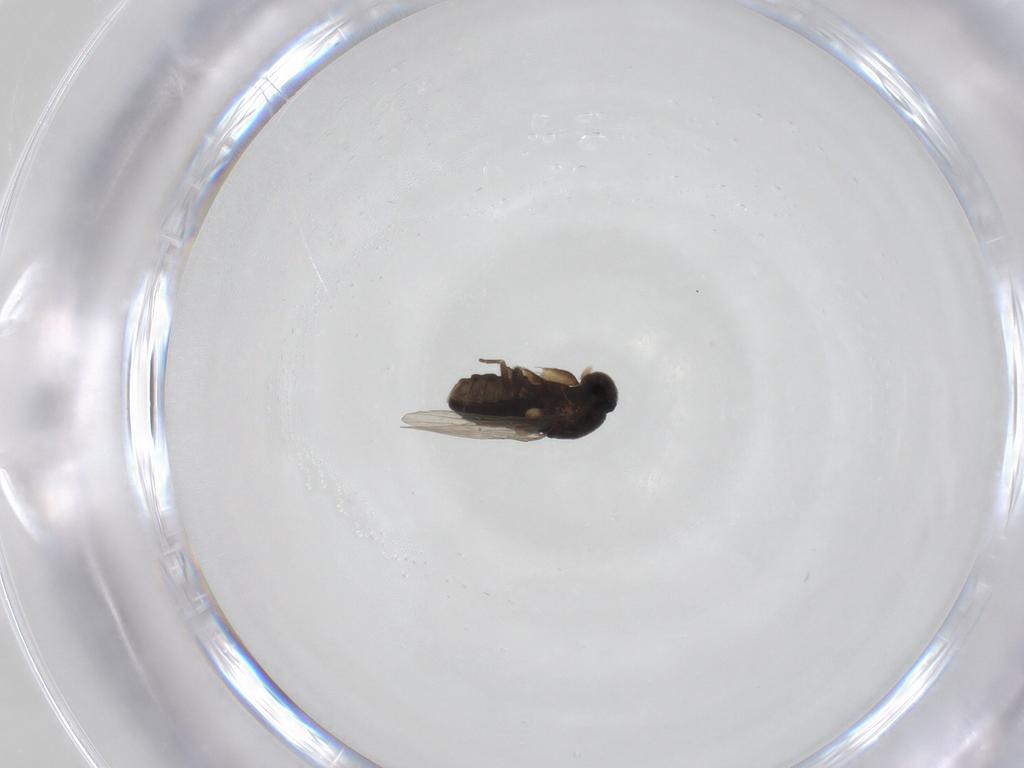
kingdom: Animalia
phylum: Arthropoda
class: Insecta
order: Diptera
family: Phoridae
